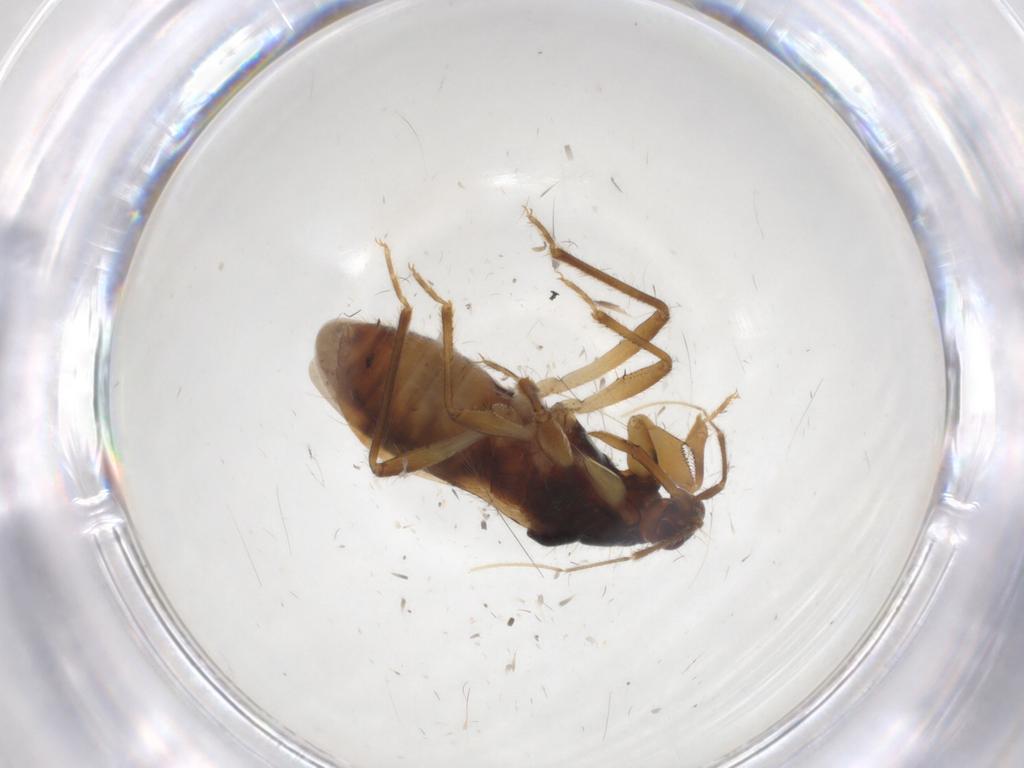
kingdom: Animalia
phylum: Arthropoda
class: Insecta
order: Hemiptera
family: Nabidae
